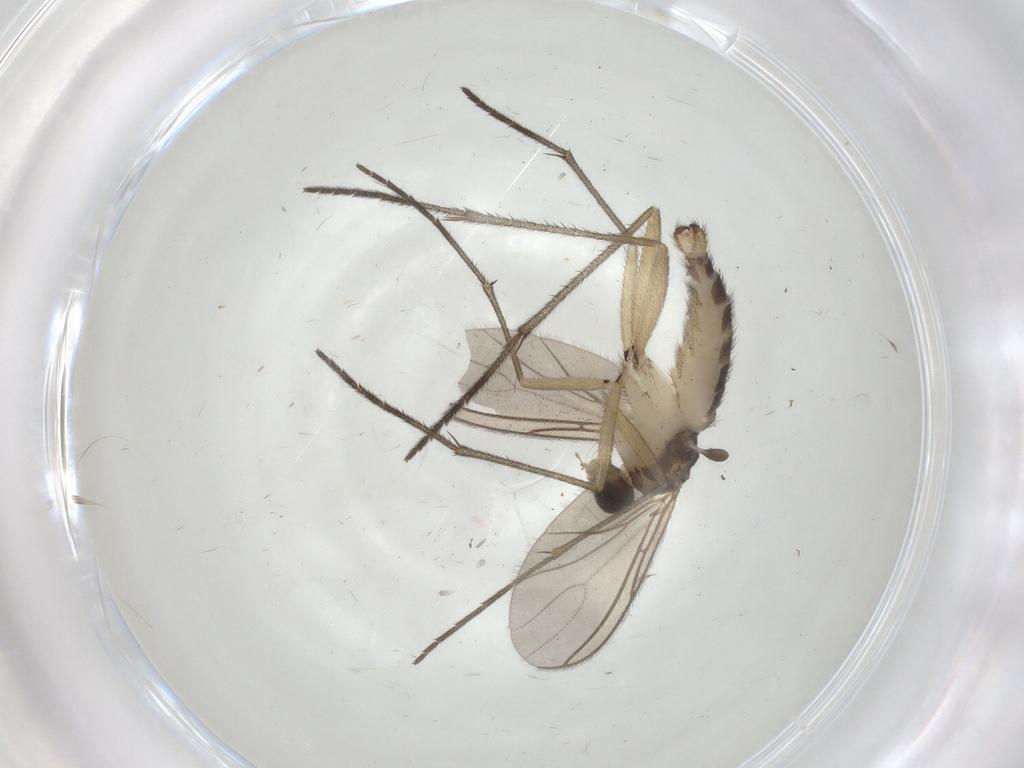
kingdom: Animalia
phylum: Arthropoda
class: Insecta
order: Diptera
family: Sciaridae
